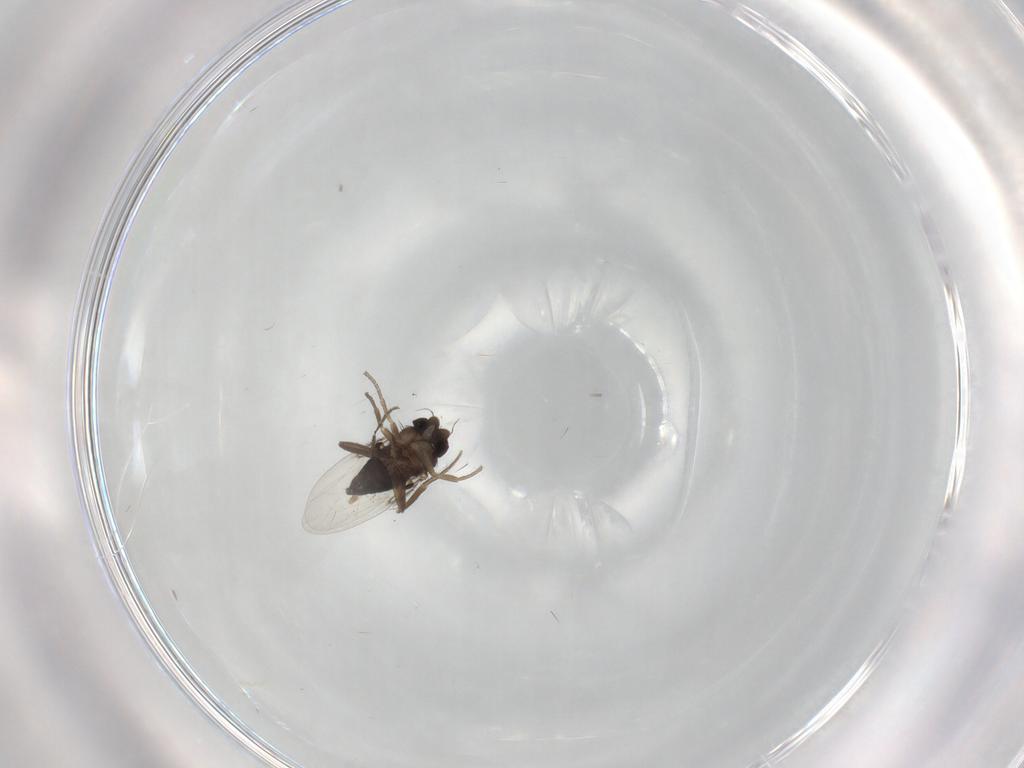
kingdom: Animalia
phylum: Arthropoda
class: Insecta
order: Diptera
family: Phoridae
